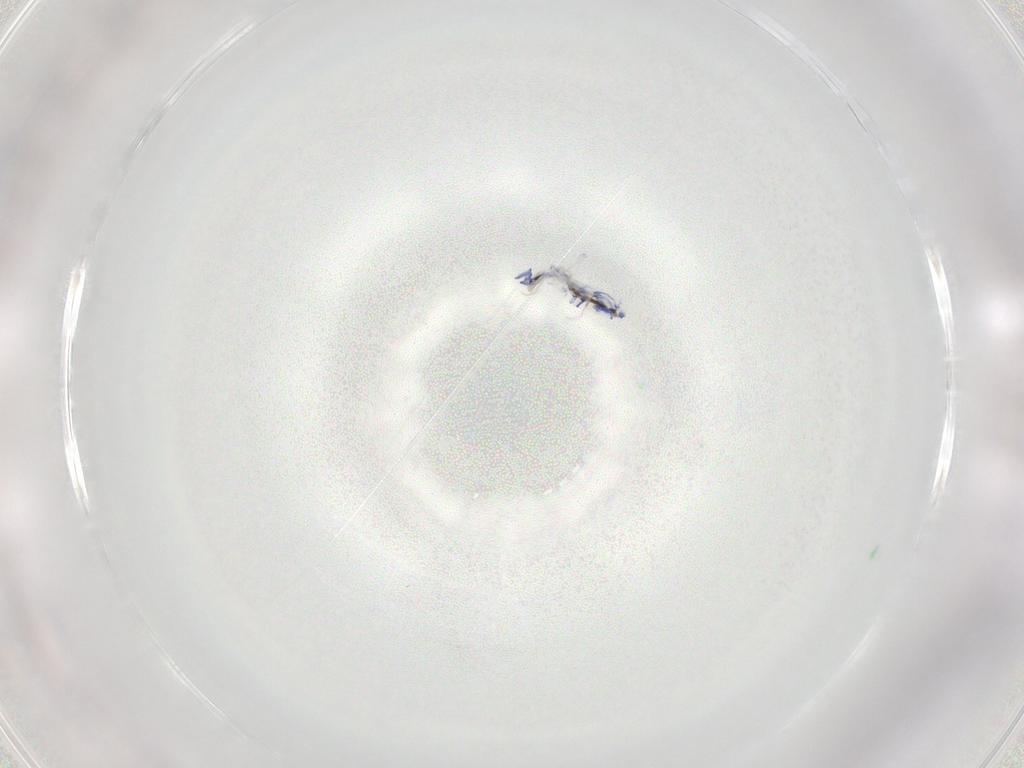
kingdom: Animalia
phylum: Arthropoda
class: Collembola
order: Entomobryomorpha
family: Entomobryidae
